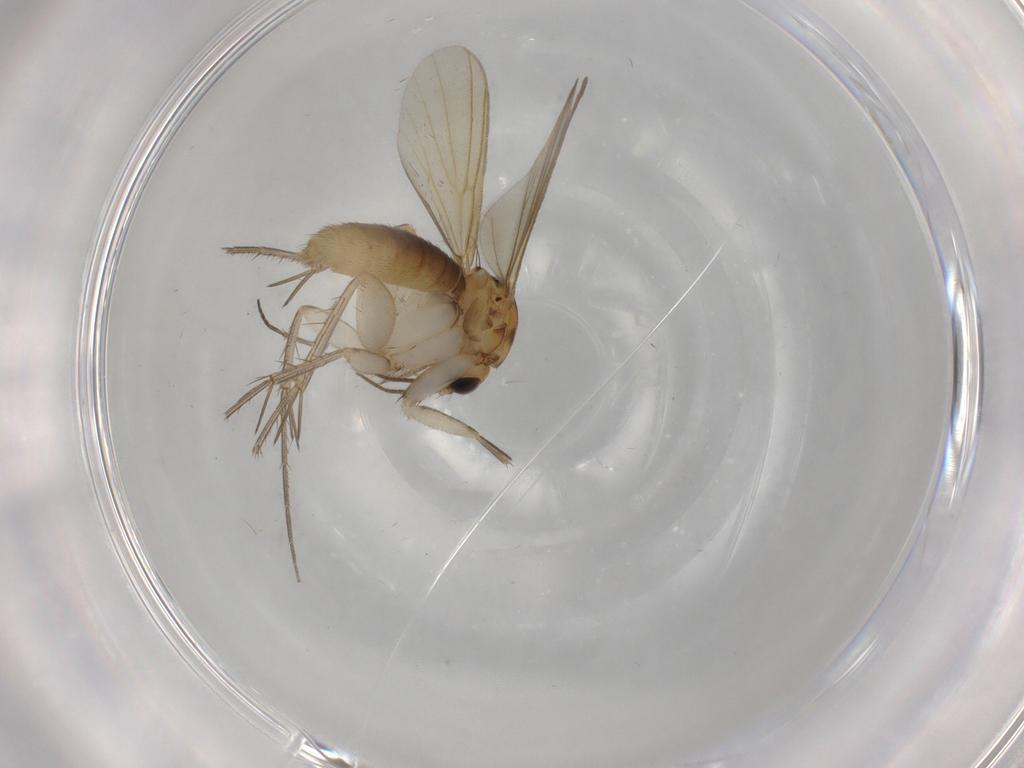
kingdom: Animalia
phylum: Arthropoda
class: Insecta
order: Diptera
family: Mycetophilidae
